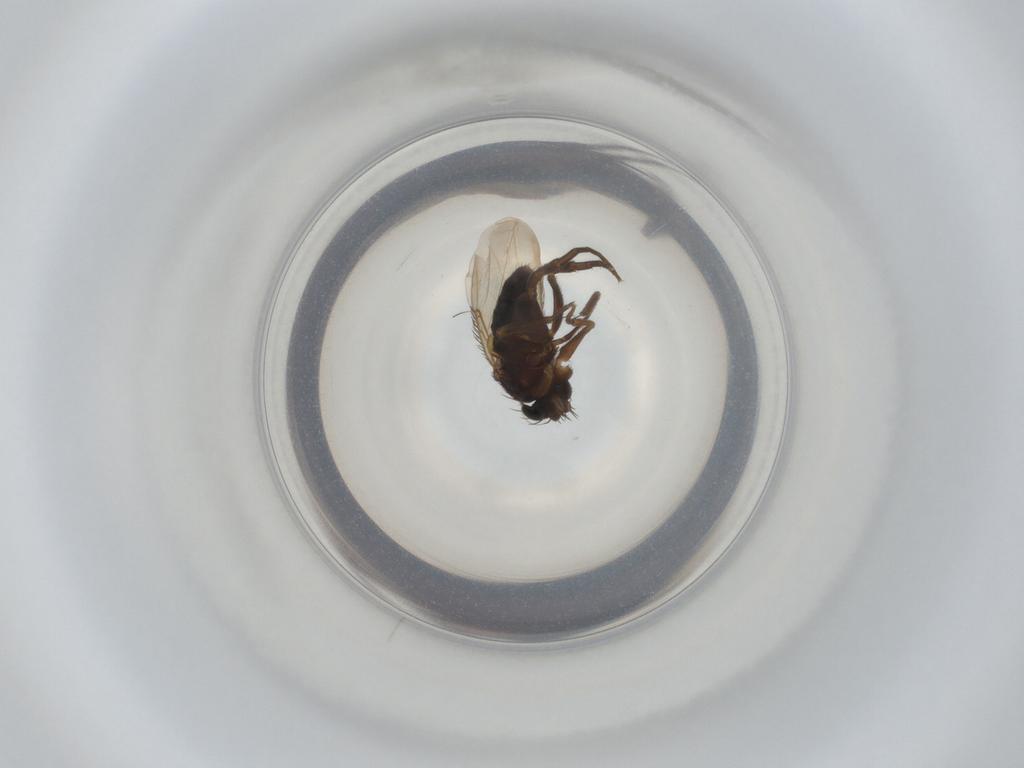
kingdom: Animalia
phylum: Arthropoda
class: Insecta
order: Diptera
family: Phoridae
